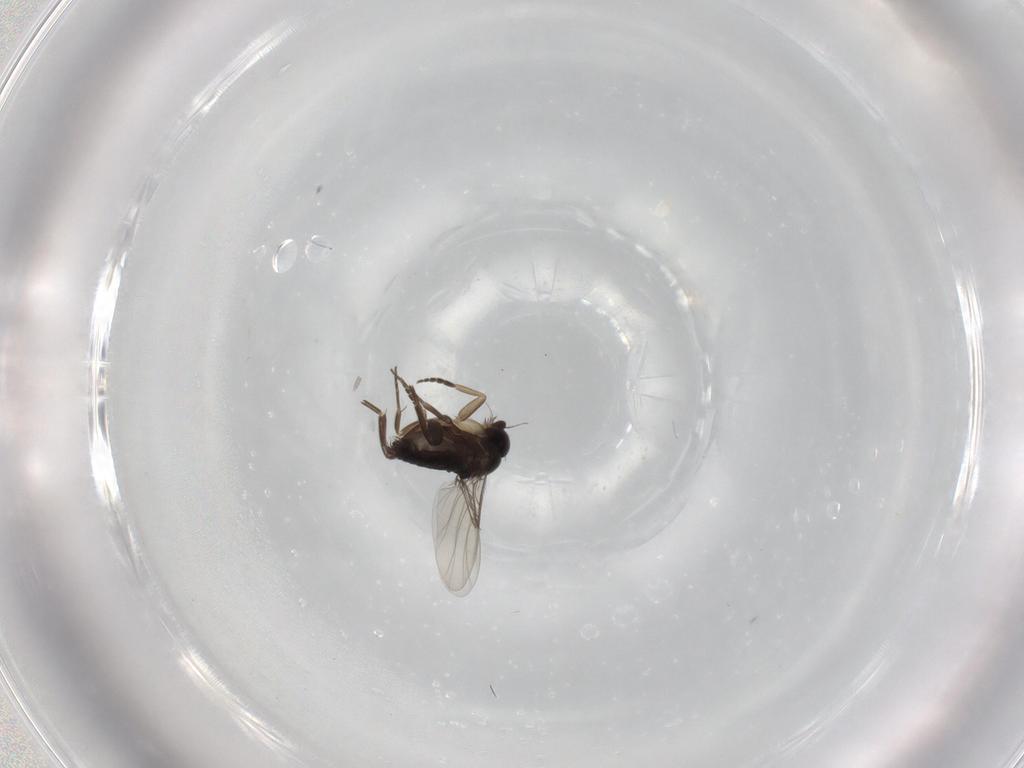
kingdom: Animalia
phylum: Arthropoda
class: Insecta
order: Diptera
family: Phoridae
